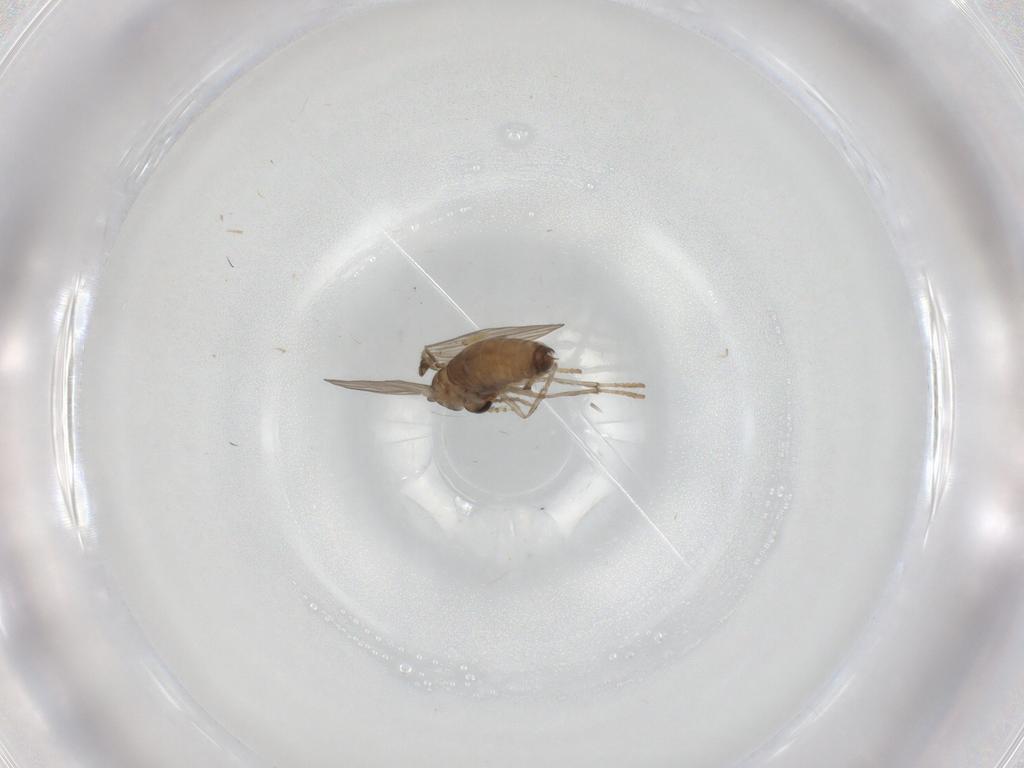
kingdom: Animalia
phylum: Arthropoda
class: Insecta
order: Diptera
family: Psychodidae
